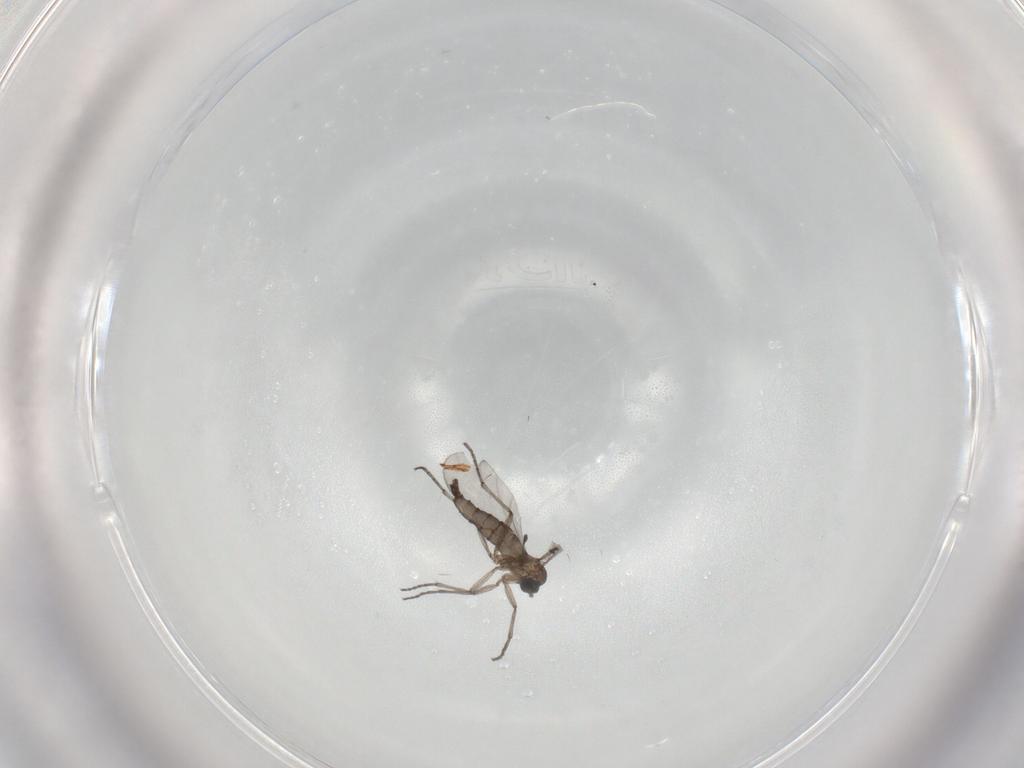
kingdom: Animalia
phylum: Arthropoda
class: Insecta
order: Diptera
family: Sciaridae
